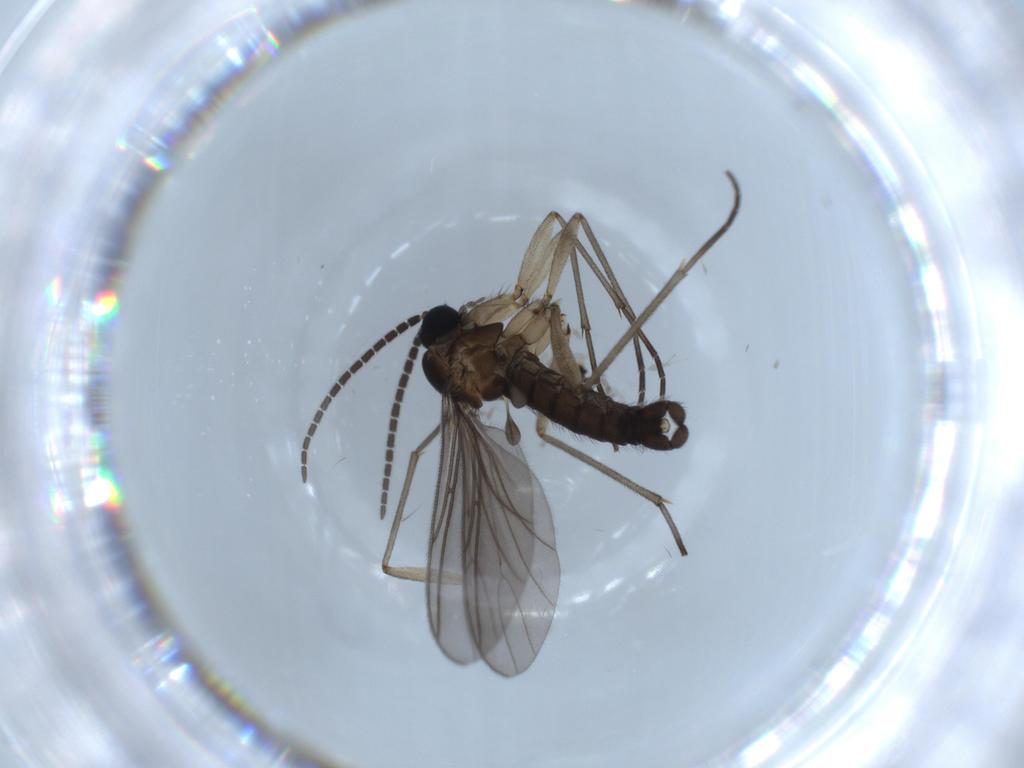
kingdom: Animalia
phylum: Arthropoda
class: Insecta
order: Diptera
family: Sciaridae
